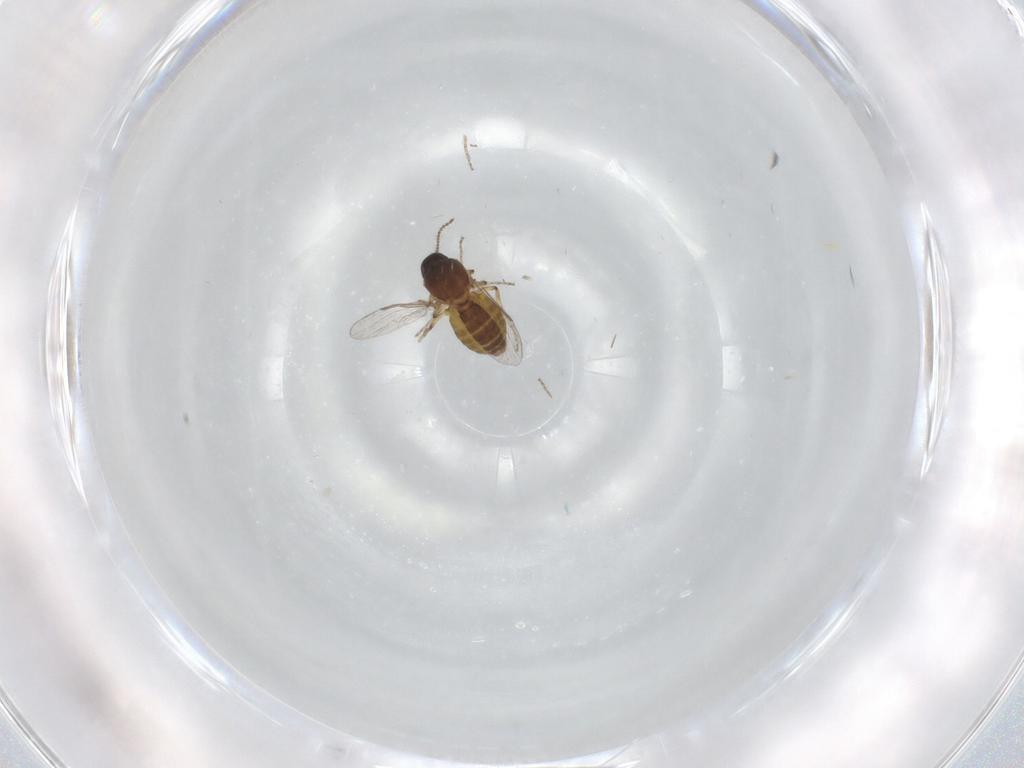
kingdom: Animalia
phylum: Arthropoda
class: Insecta
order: Diptera
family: Ceratopogonidae
